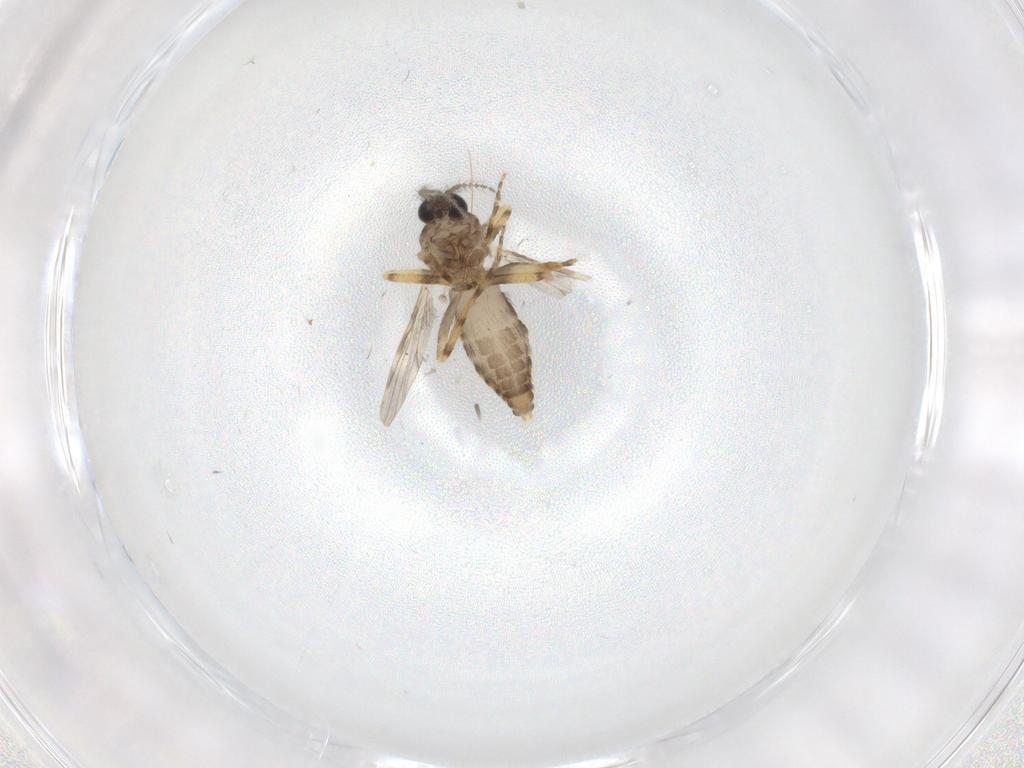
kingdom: Animalia
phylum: Arthropoda
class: Insecta
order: Diptera
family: Ceratopogonidae
